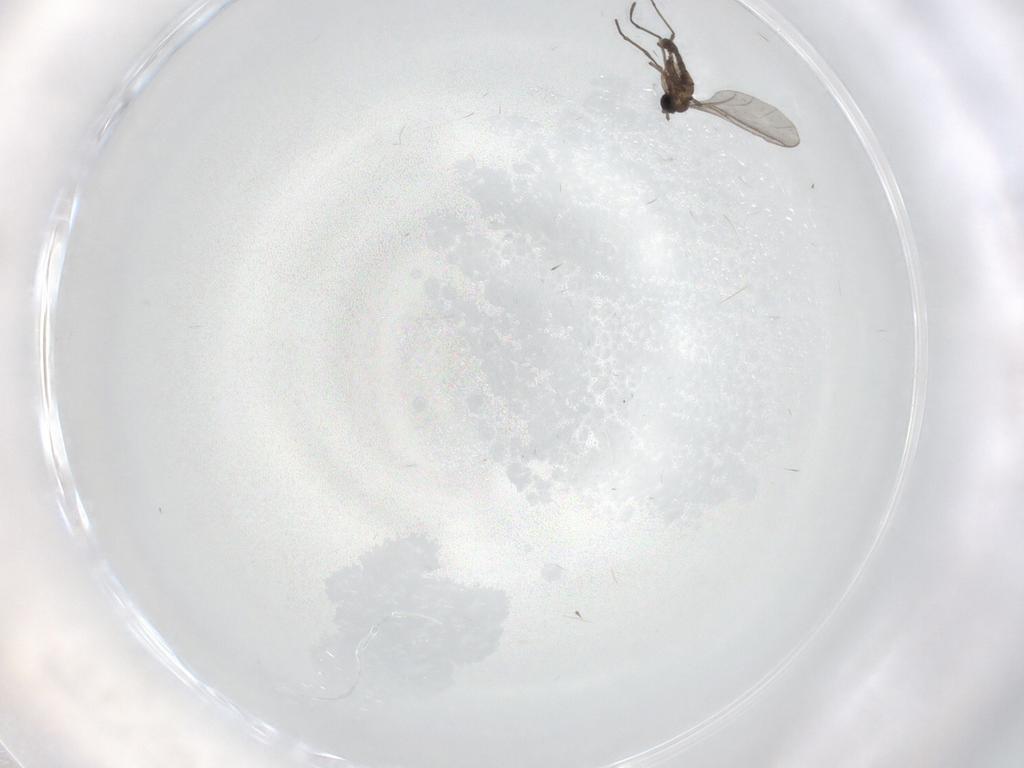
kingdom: Animalia
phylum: Arthropoda
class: Insecta
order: Diptera
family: Sciaridae
